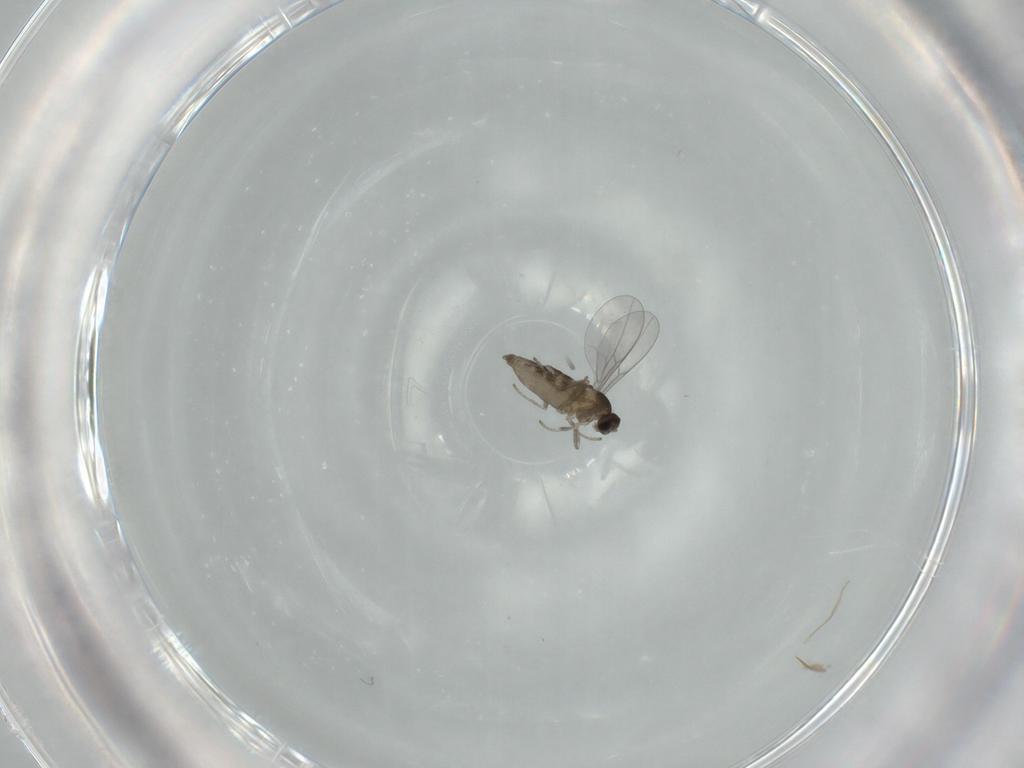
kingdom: Animalia
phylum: Arthropoda
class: Insecta
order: Diptera
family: Cecidomyiidae
